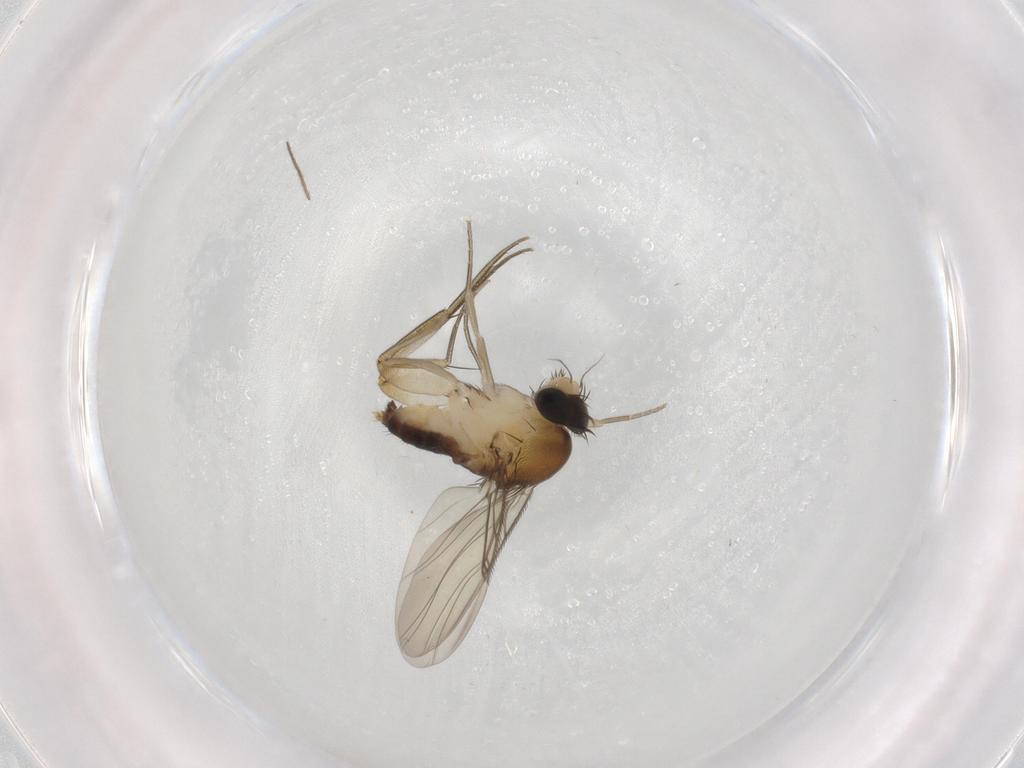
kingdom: Animalia
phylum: Arthropoda
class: Insecta
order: Diptera
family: Phoridae
